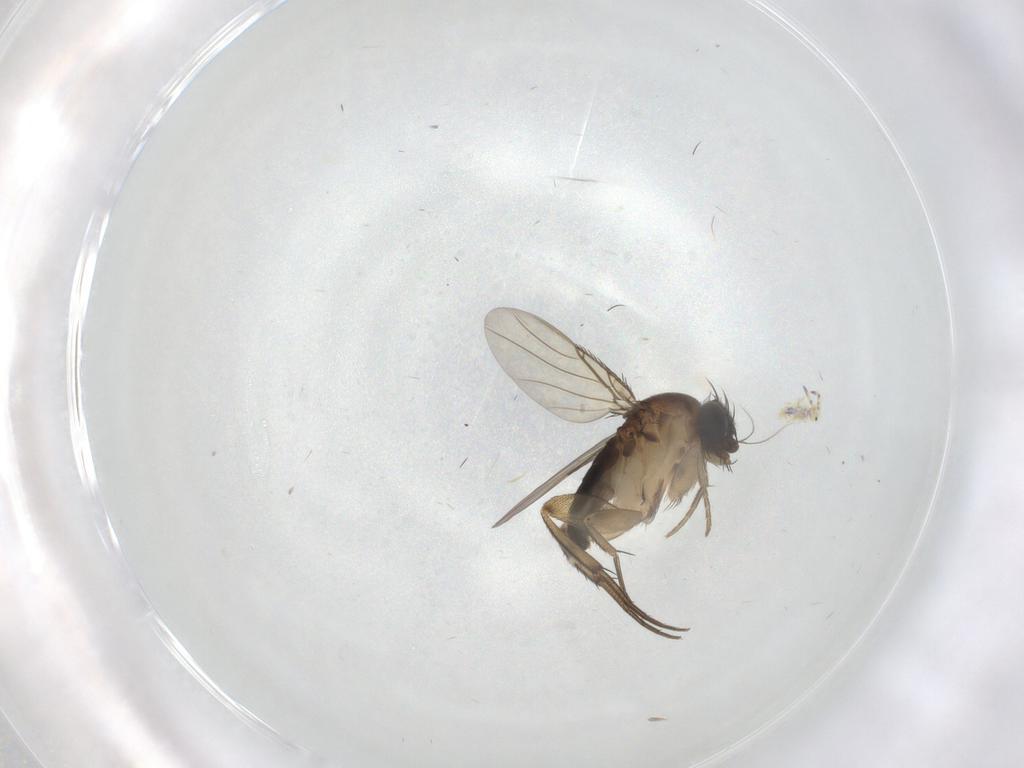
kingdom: Animalia
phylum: Arthropoda
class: Insecta
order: Diptera
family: Phoridae
